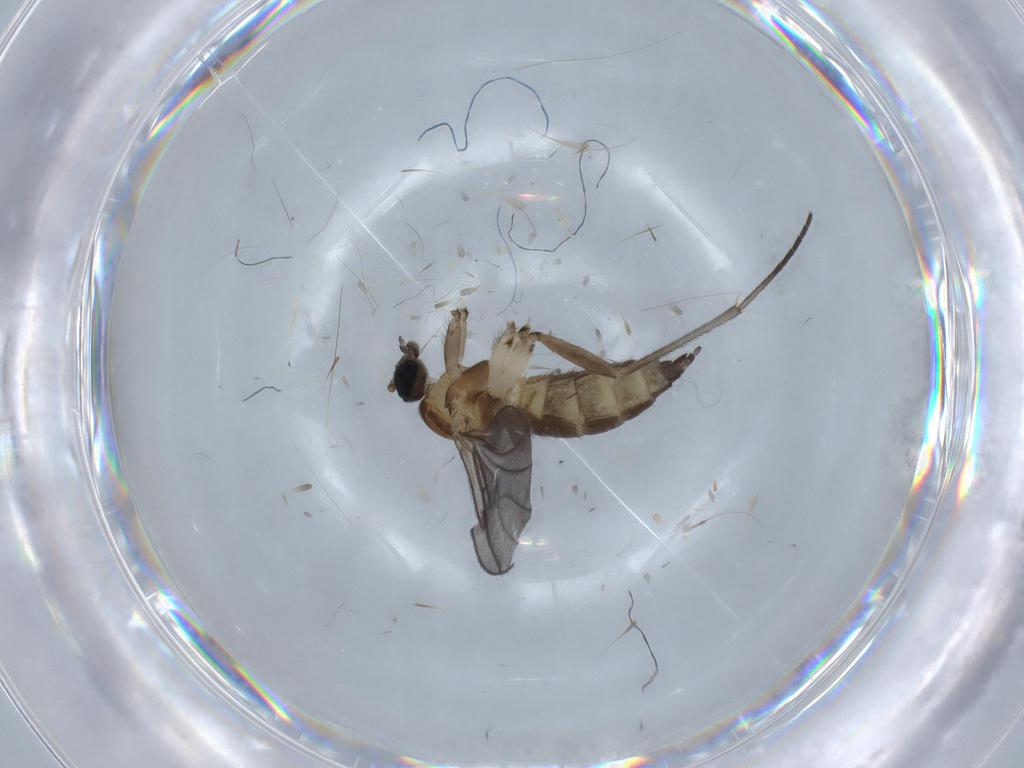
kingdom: Animalia
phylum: Arthropoda
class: Insecta
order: Diptera
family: Sciaridae
